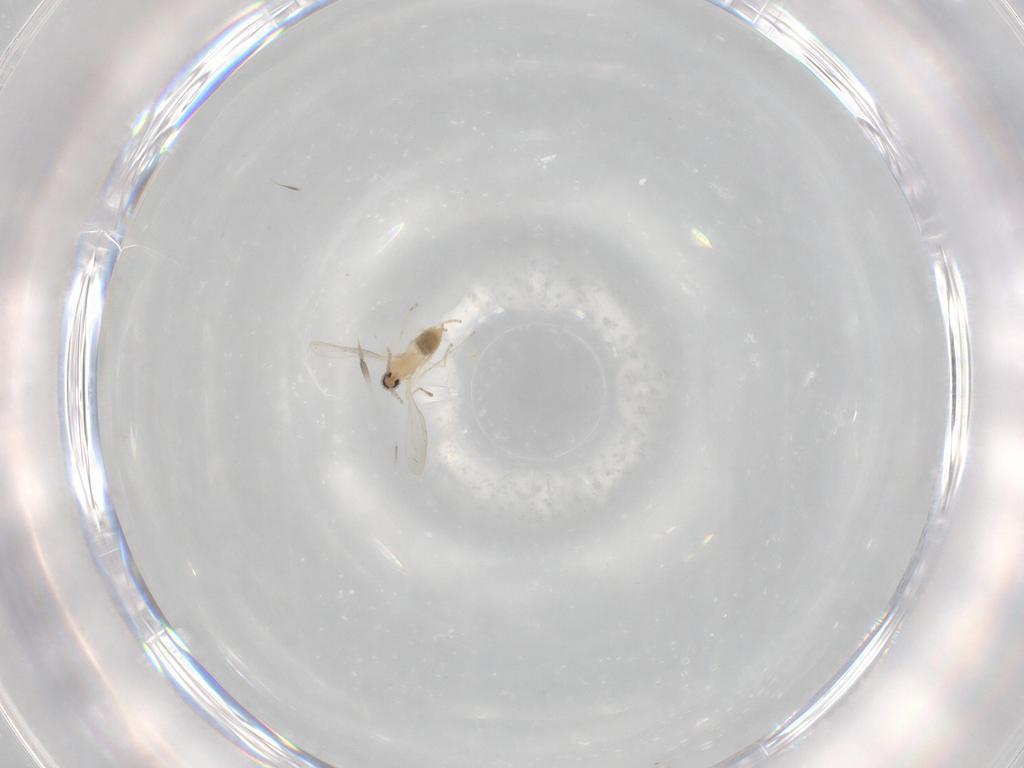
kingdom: Animalia
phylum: Arthropoda
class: Insecta
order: Diptera
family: Cecidomyiidae
